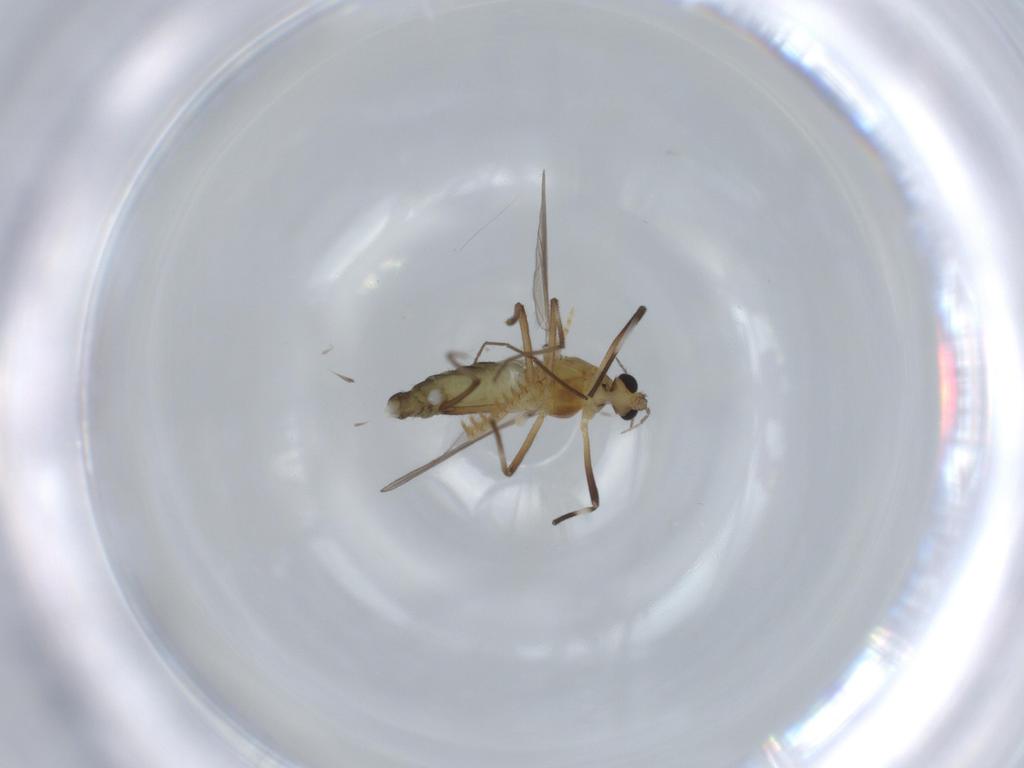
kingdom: Animalia
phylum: Arthropoda
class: Insecta
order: Diptera
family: Chironomidae
